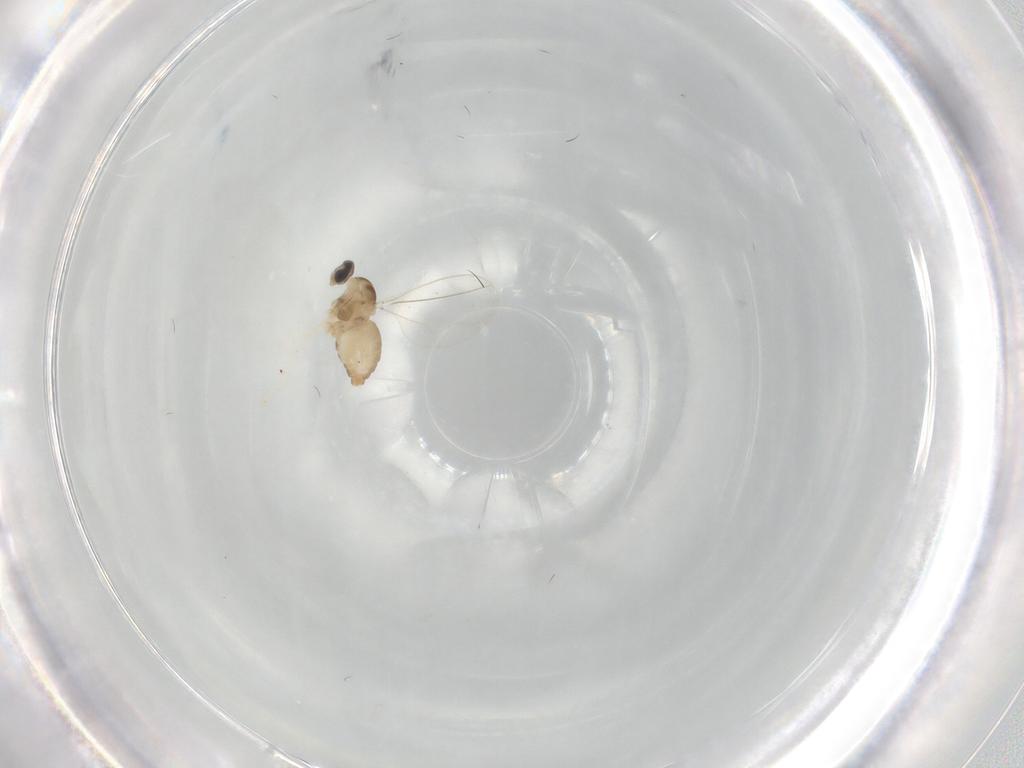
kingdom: Animalia
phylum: Arthropoda
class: Insecta
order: Diptera
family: Cecidomyiidae
